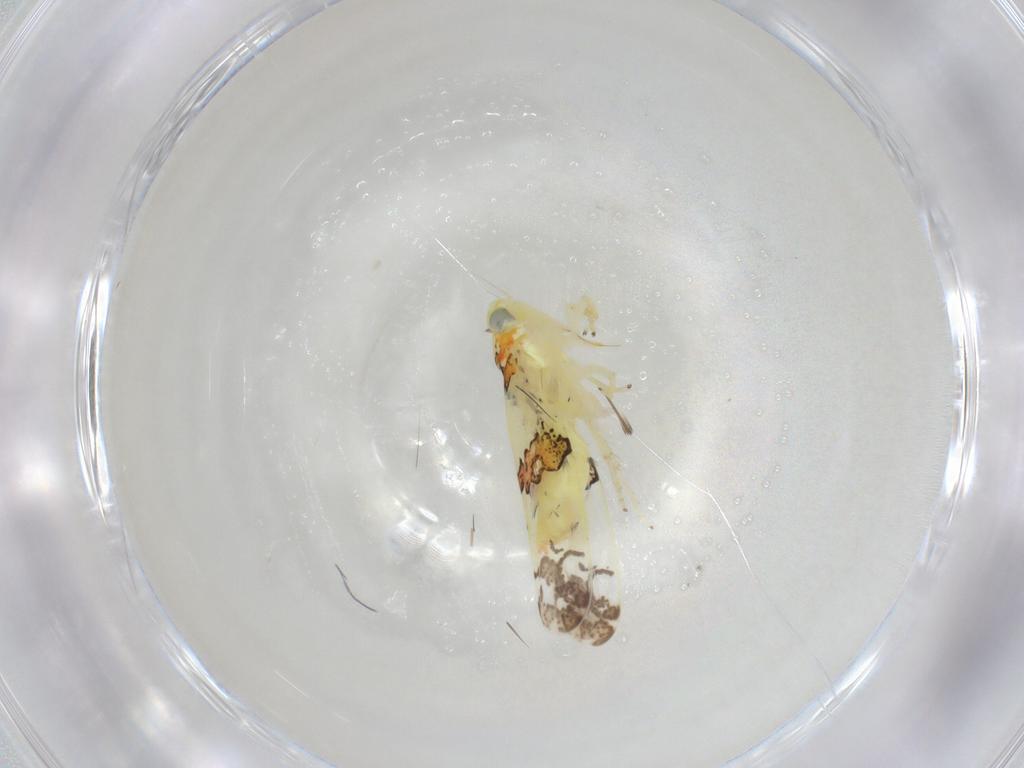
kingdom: Animalia
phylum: Arthropoda
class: Insecta
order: Hemiptera
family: Cicadellidae
